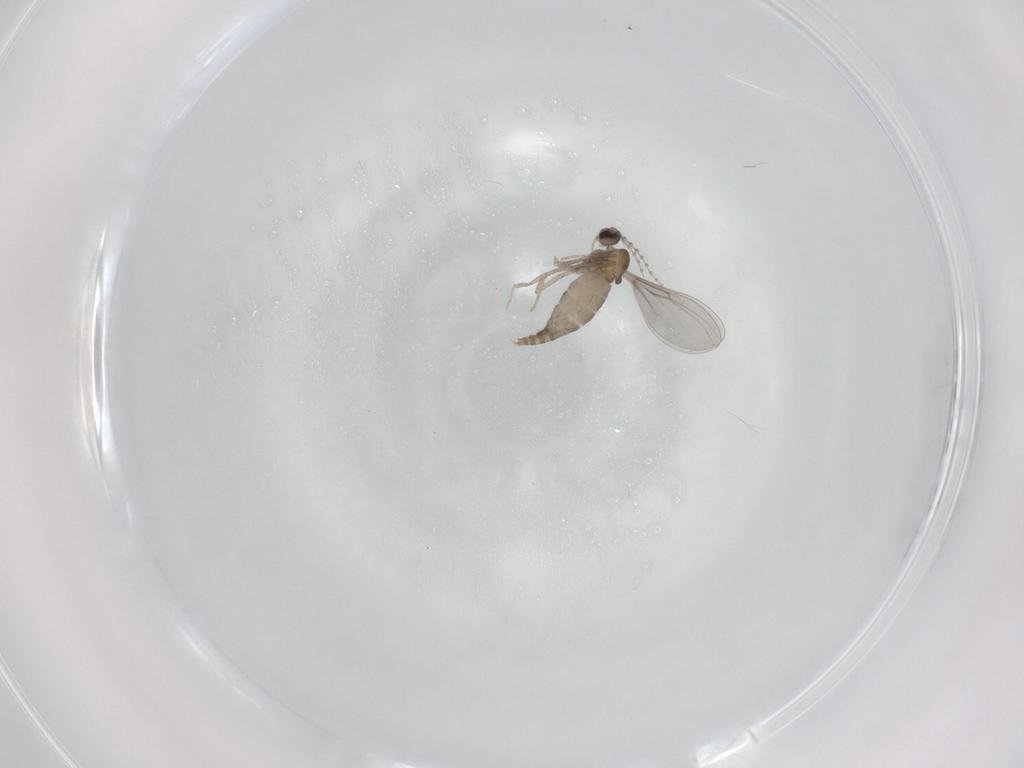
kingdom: Animalia
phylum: Arthropoda
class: Insecta
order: Diptera
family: Cecidomyiidae
